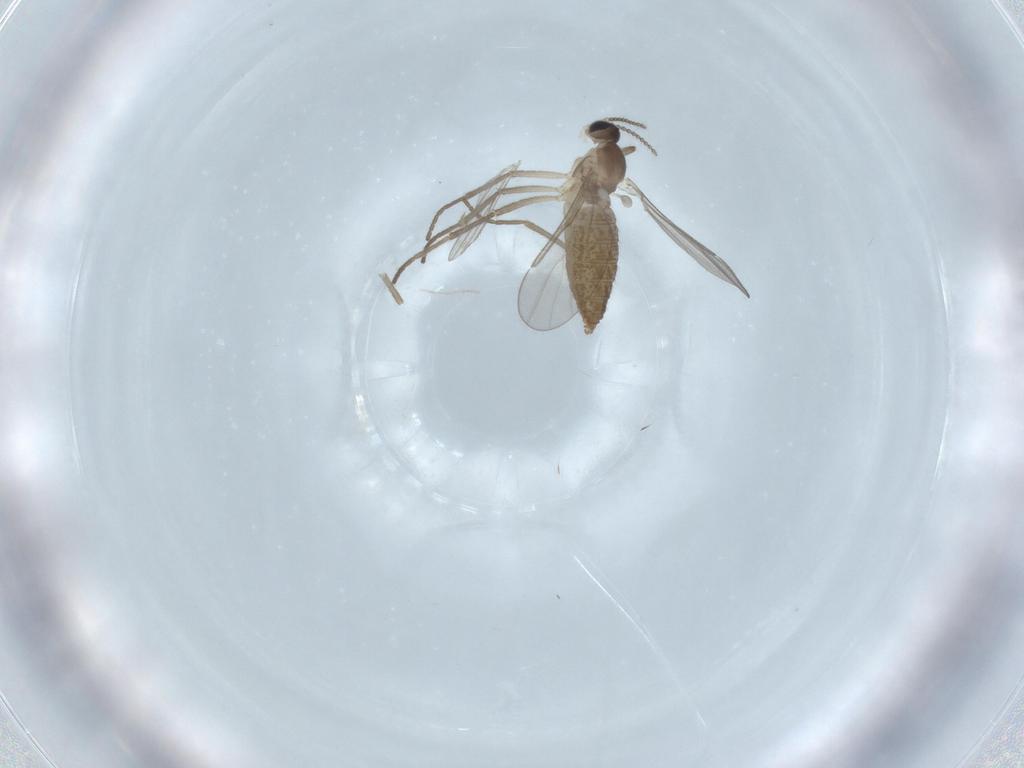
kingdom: Animalia
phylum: Arthropoda
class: Insecta
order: Diptera
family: Chironomidae
